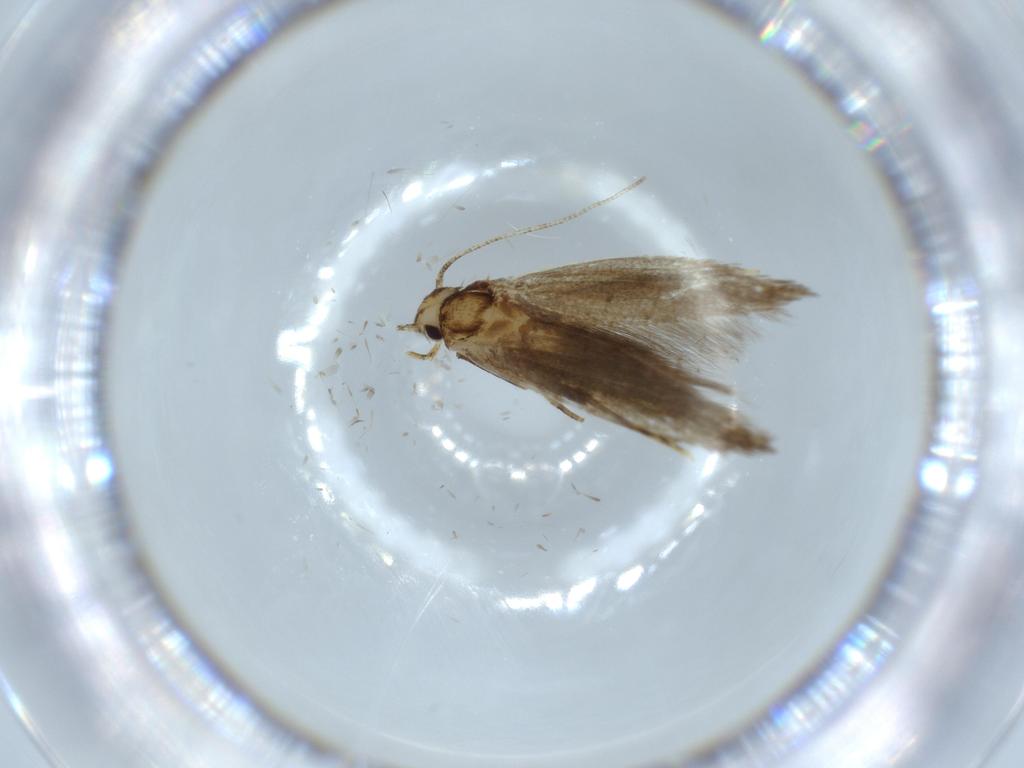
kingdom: Animalia
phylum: Arthropoda
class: Insecta
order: Lepidoptera
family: Tineidae
